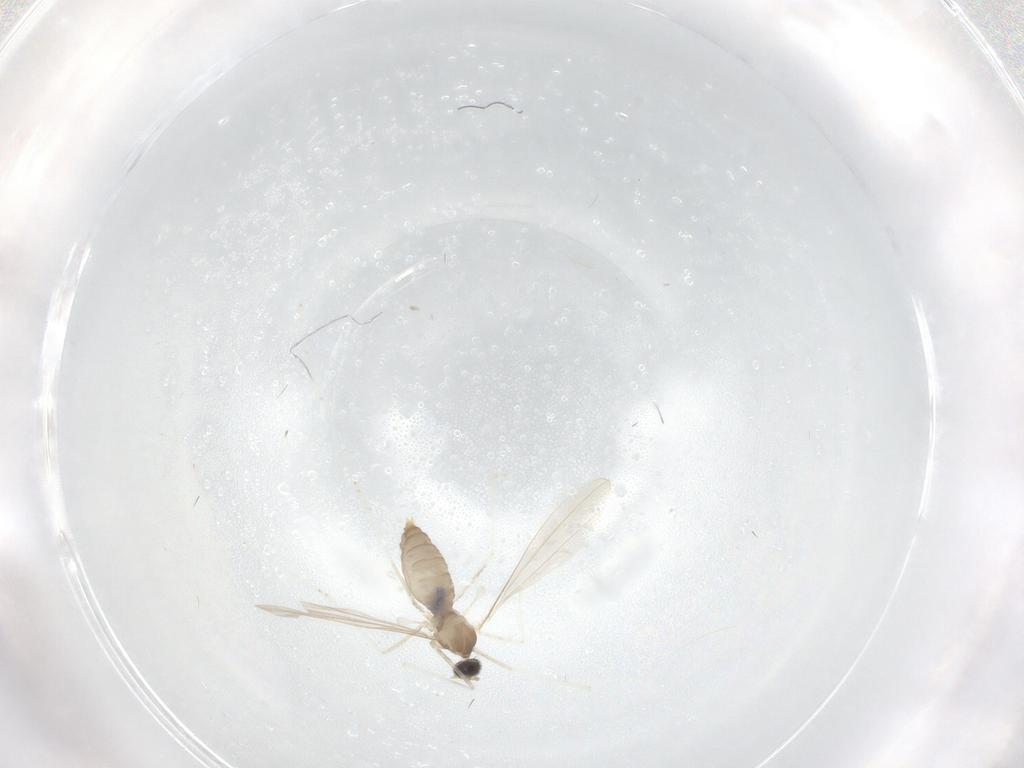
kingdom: Animalia
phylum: Arthropoda
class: Insecta
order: Diptera
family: Cecidomyiidae
